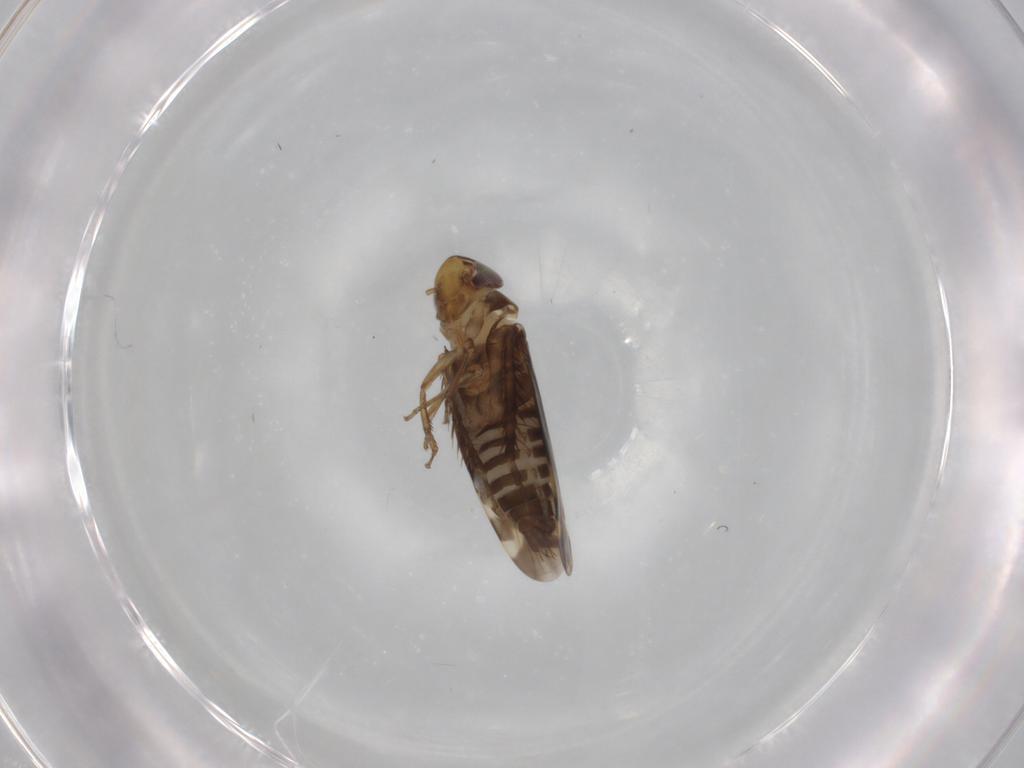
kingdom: Animalia
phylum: Arthropoda
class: Insecta
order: Hemiptera
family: Cicadellidae
